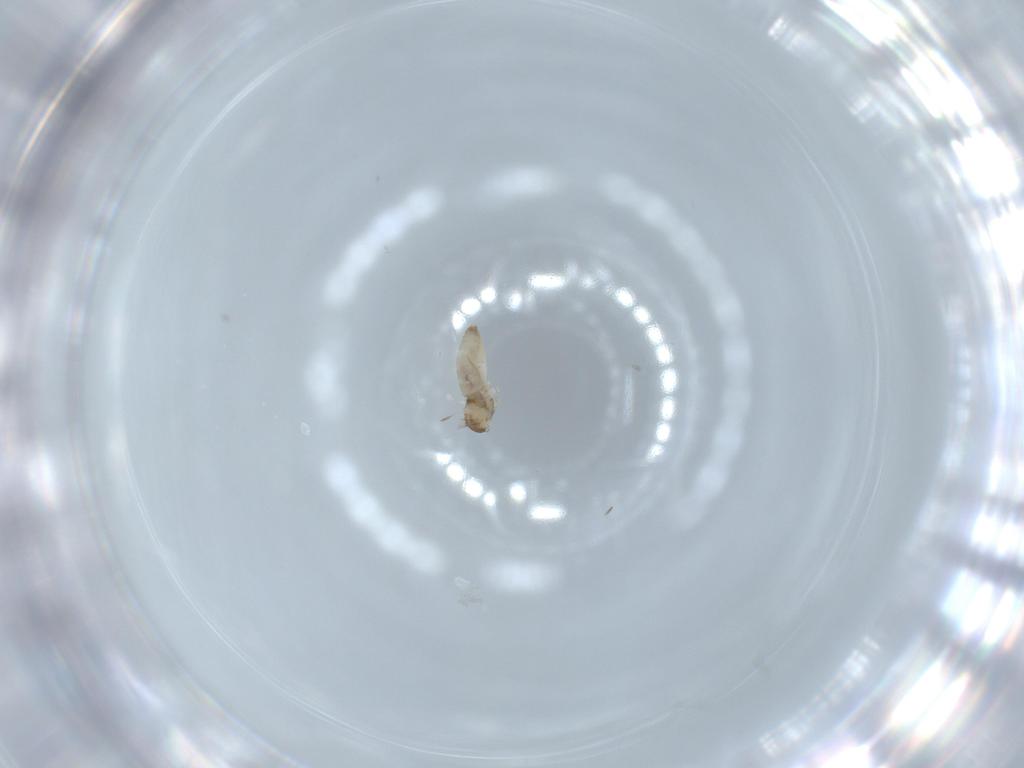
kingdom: Animalia
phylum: Arthropoda
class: Insecta
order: Diptera
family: Cecidomyiidae
